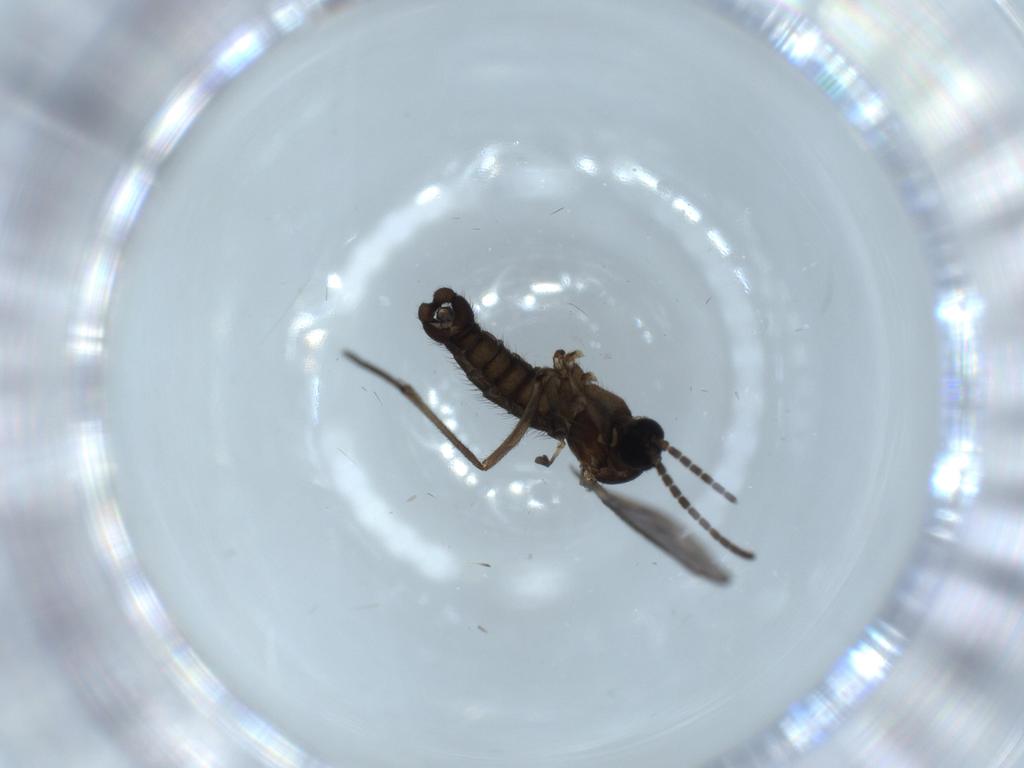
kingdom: Animalia
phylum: Arthropoda
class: Insecta
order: Diptera
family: Sciaridae
